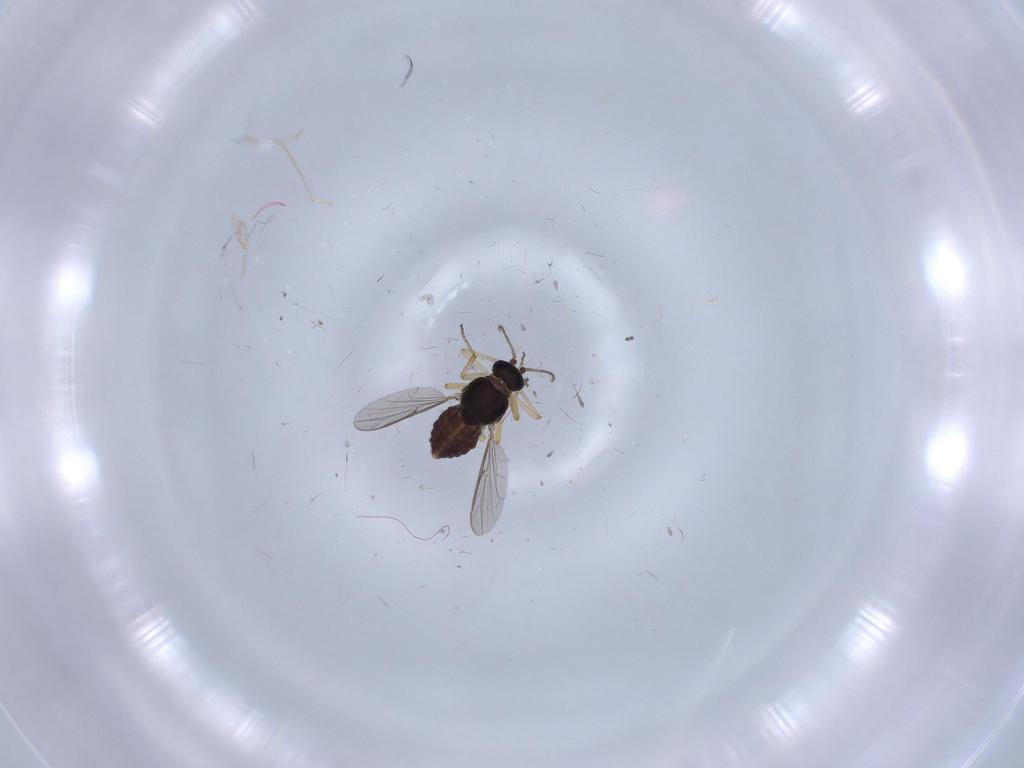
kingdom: Animalia
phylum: Arthropoda
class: Insecta
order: Diptera
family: Ceratopogonidae
